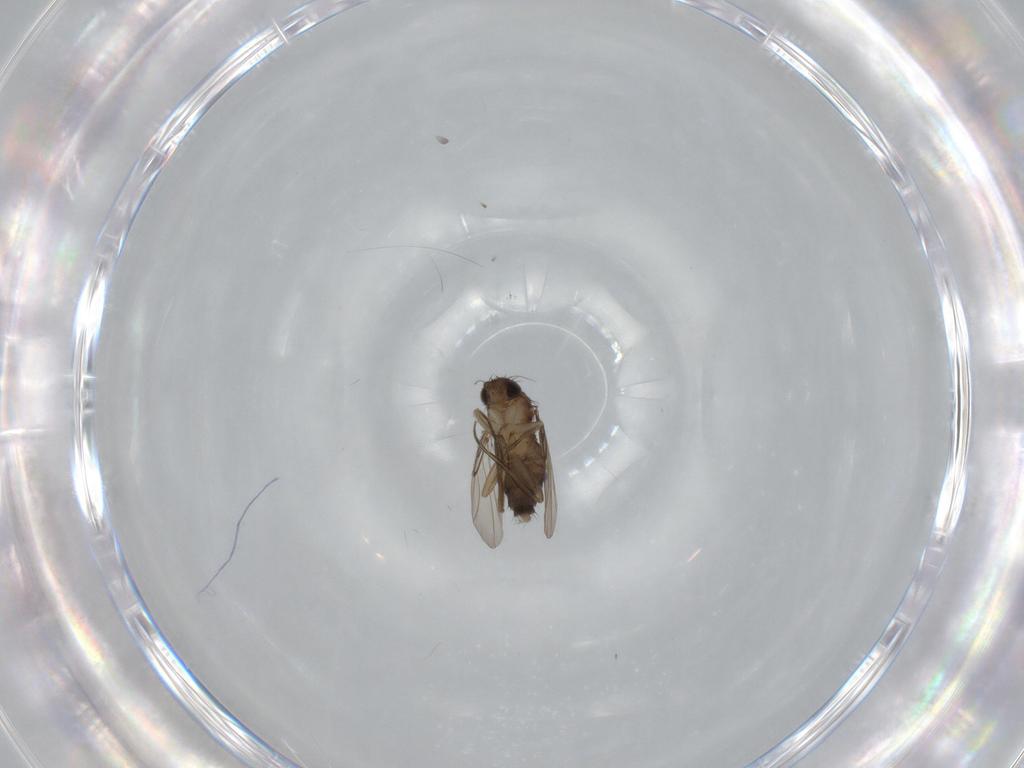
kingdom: Animalia
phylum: Arthropoda
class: Insecta
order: Diptera
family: Phoridae
